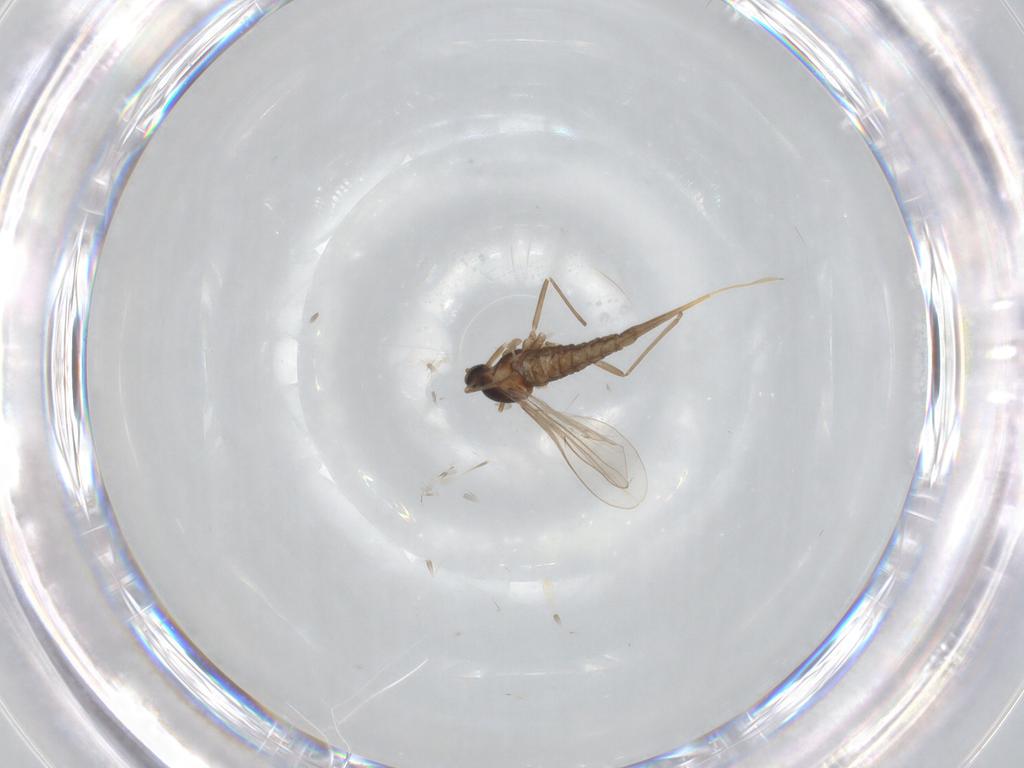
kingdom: Animalia
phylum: Arthropoda
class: Insecta
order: Diptera
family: Cecidomyiidae
